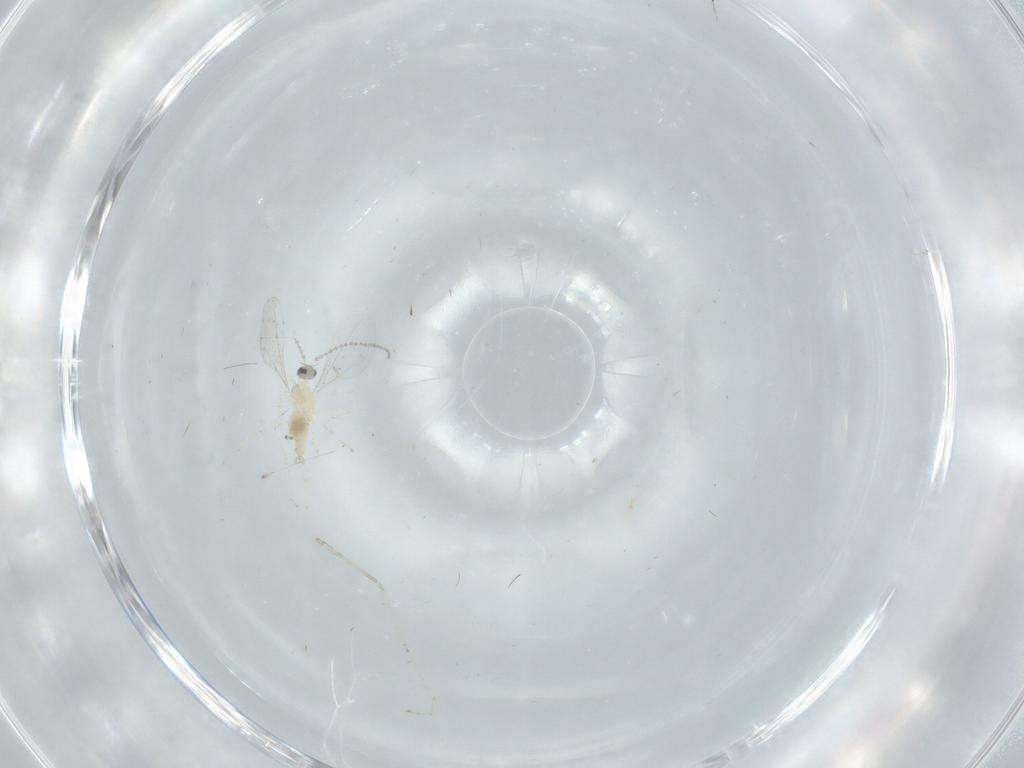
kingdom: Animalia
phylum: Arthropoda
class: Insecta
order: Diptera
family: Cecidomyiidae
